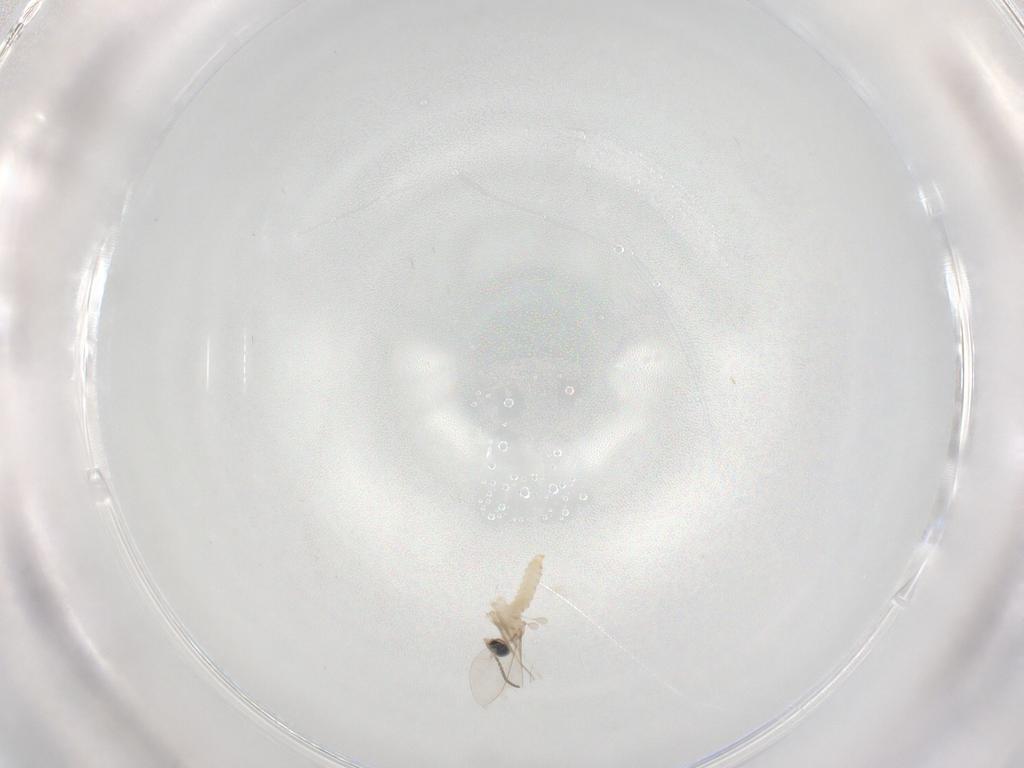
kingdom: Animalia
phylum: Arthropoda
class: Insecta
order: Diptera
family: Cecidomyiidae
